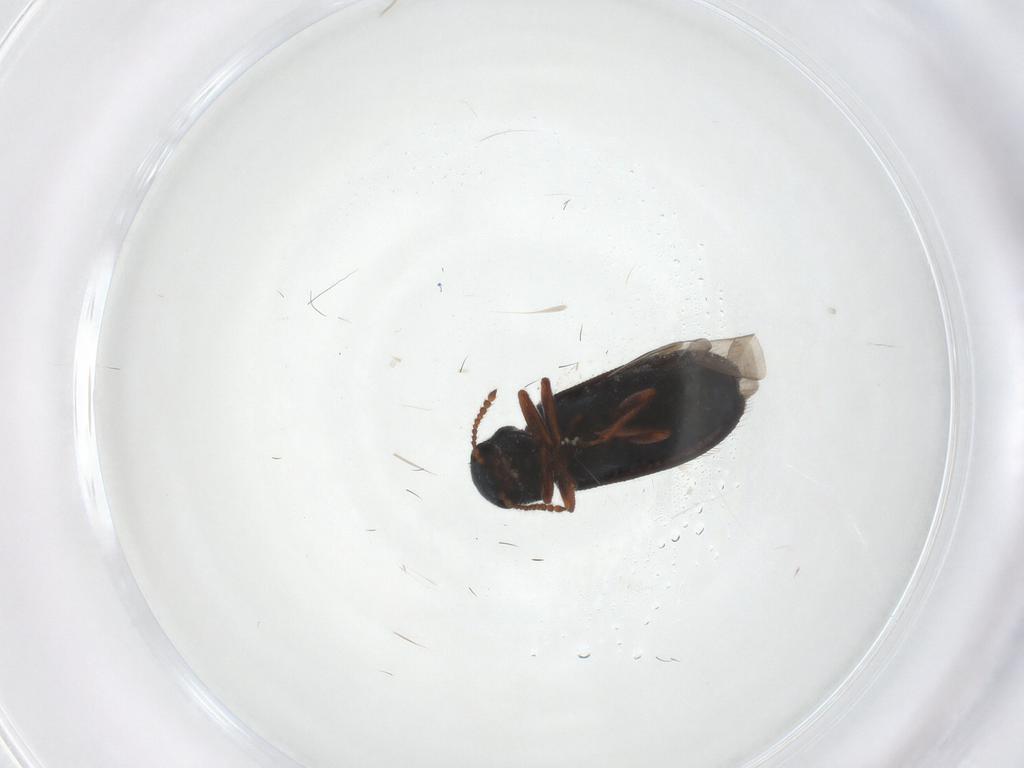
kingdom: Animalia
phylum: Arthropoda
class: Insecta
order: Coleoptera
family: Melyridae
